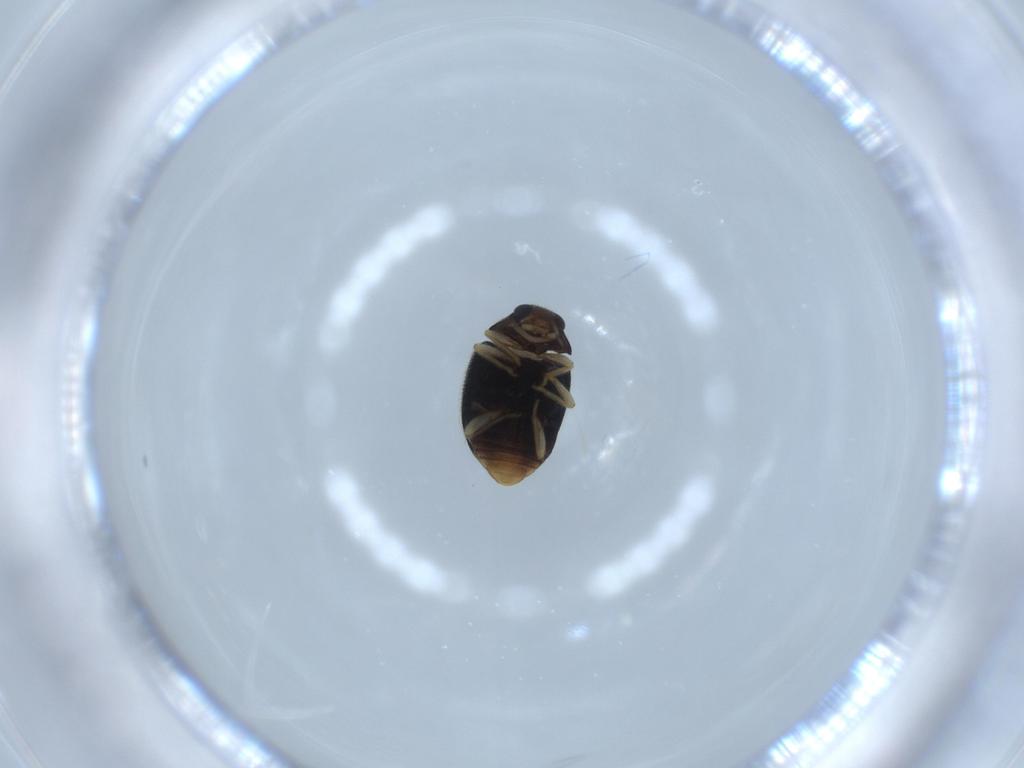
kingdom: Animalia
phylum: Arthropoda
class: Insecta
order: Coleoptera
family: Coccinellidae
